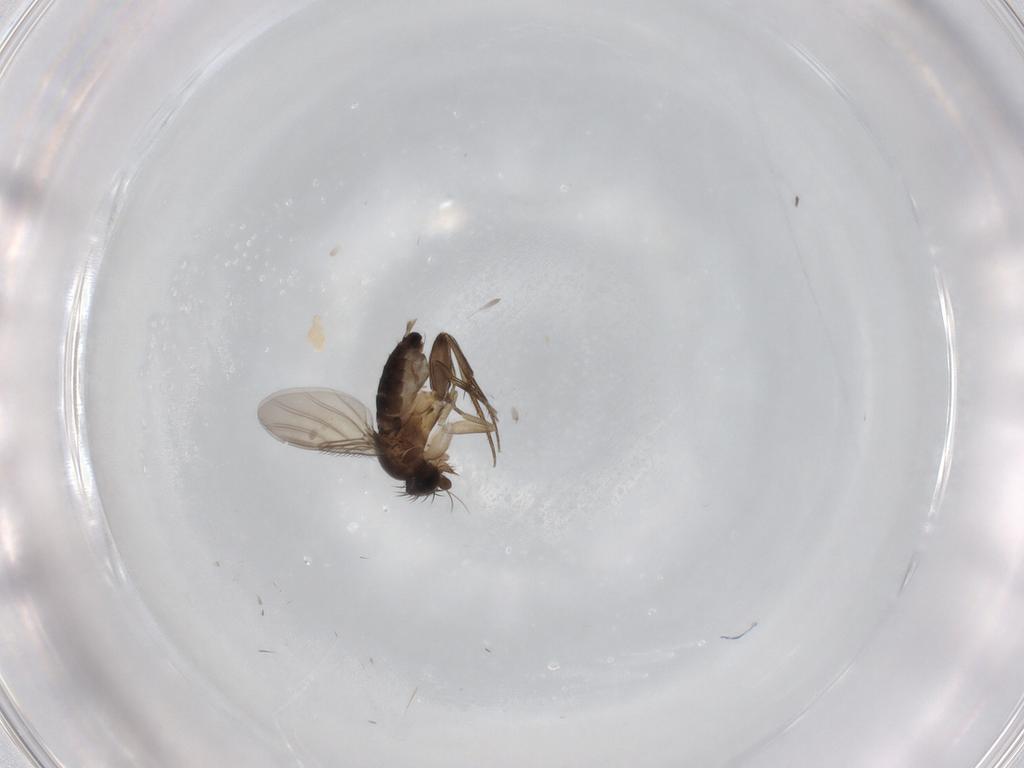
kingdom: Animalia
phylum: Arthropoda
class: Insecta
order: Diptera
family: Phoridae
